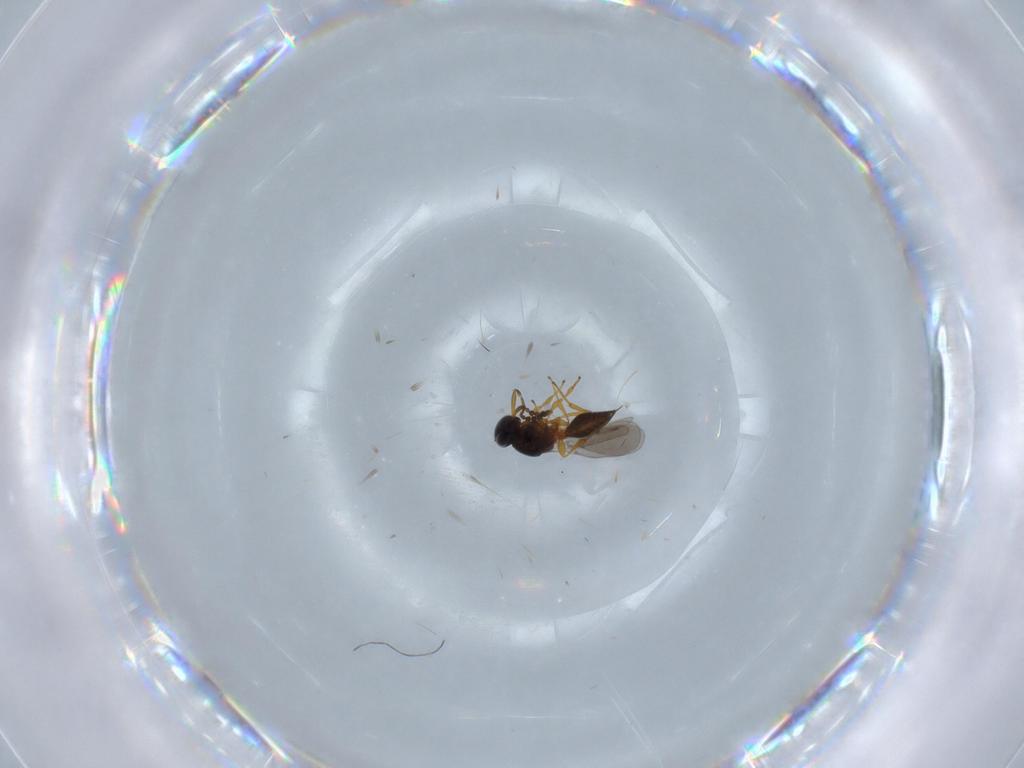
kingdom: Animalia
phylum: Arthropoda
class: Insecta
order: Hymenoptera
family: Platygastridae
